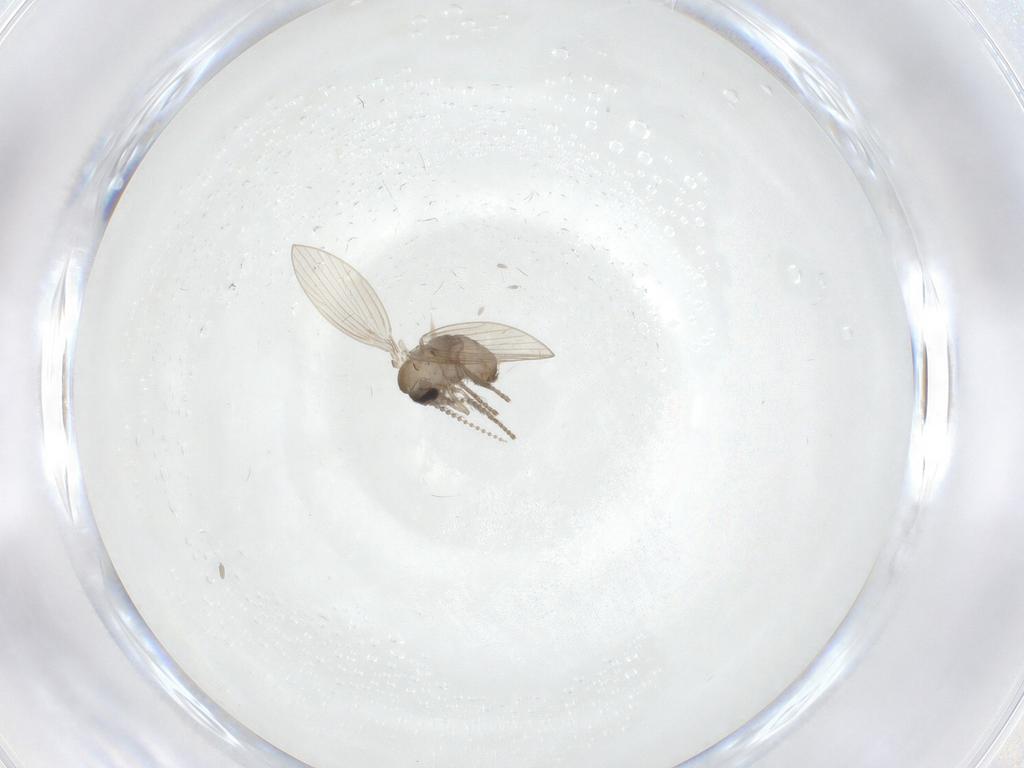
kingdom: Animalia
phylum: Arthropoda
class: Insecta
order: Diptera
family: Psychodidae
